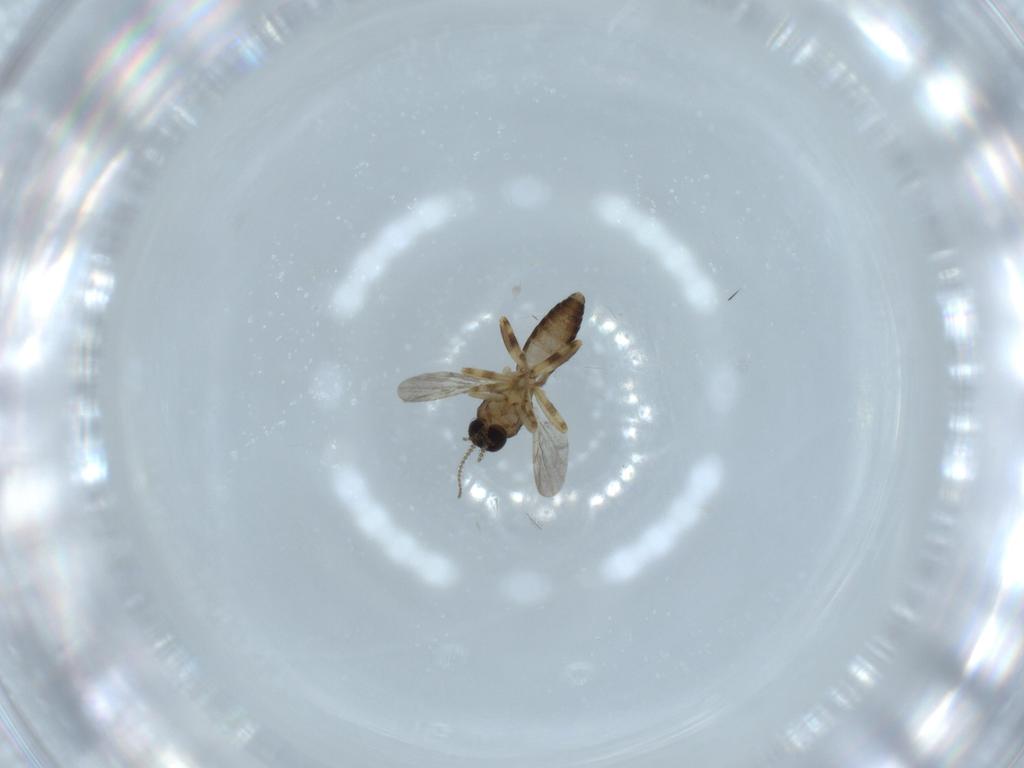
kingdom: Animalia
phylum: Arthropoda
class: Insecta
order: Diptera
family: Ceratopogonidae
